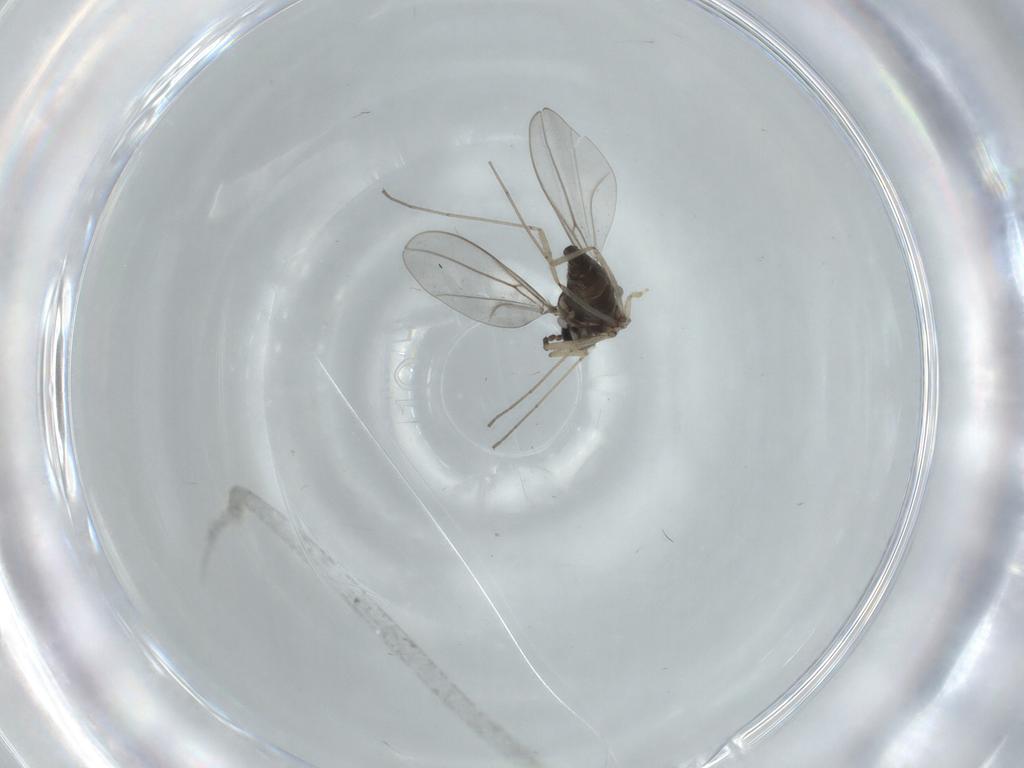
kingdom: Animalia
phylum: Arthropoda
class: Insecta
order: Diptera
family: Cecidomyiidae
